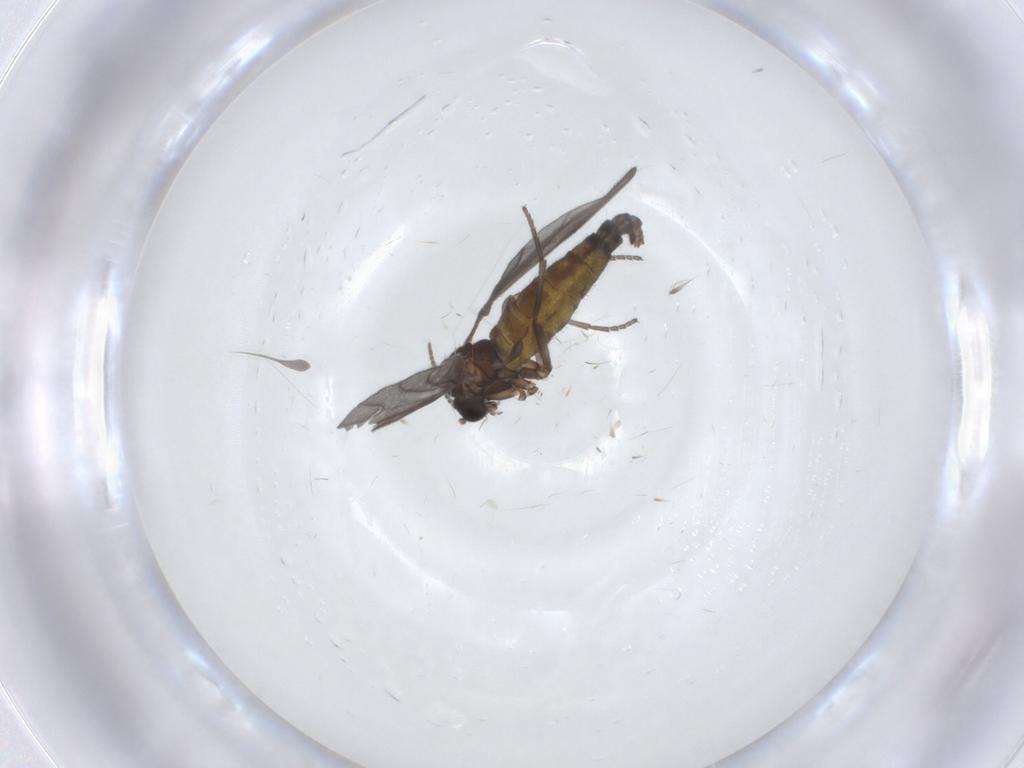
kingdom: Animalia
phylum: Arthropoda
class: Insecta
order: Diptera
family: Sciaridae
